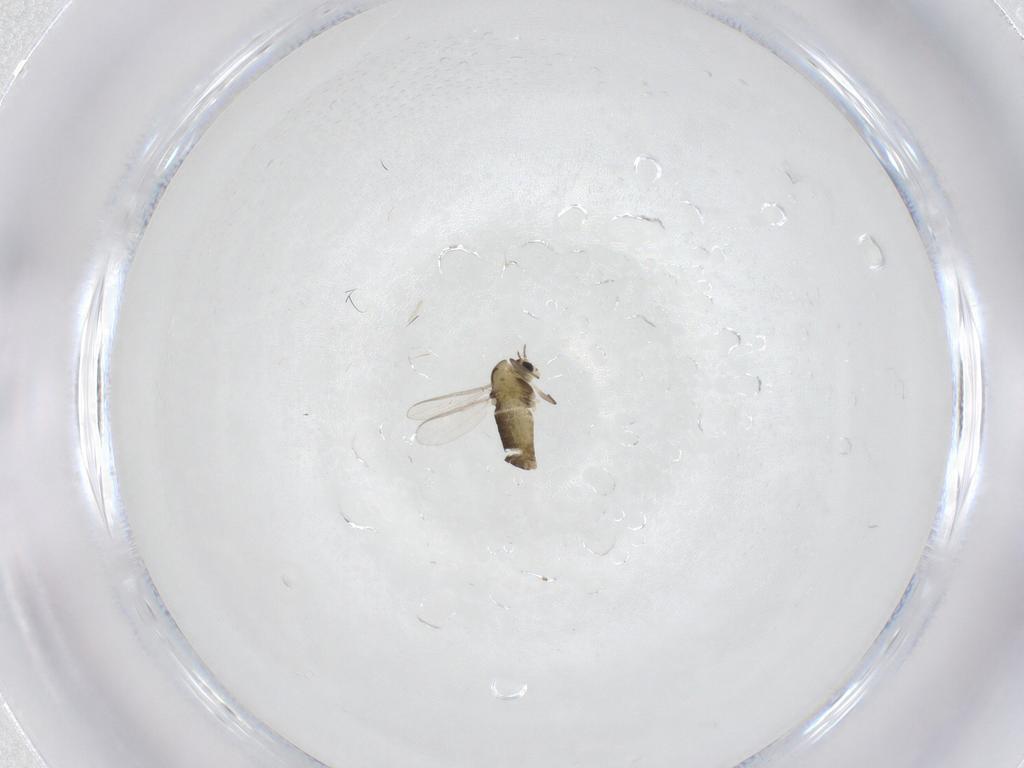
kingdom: Animalia
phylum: Arthropoda
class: Insecta
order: Diptera
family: Chironomidae
